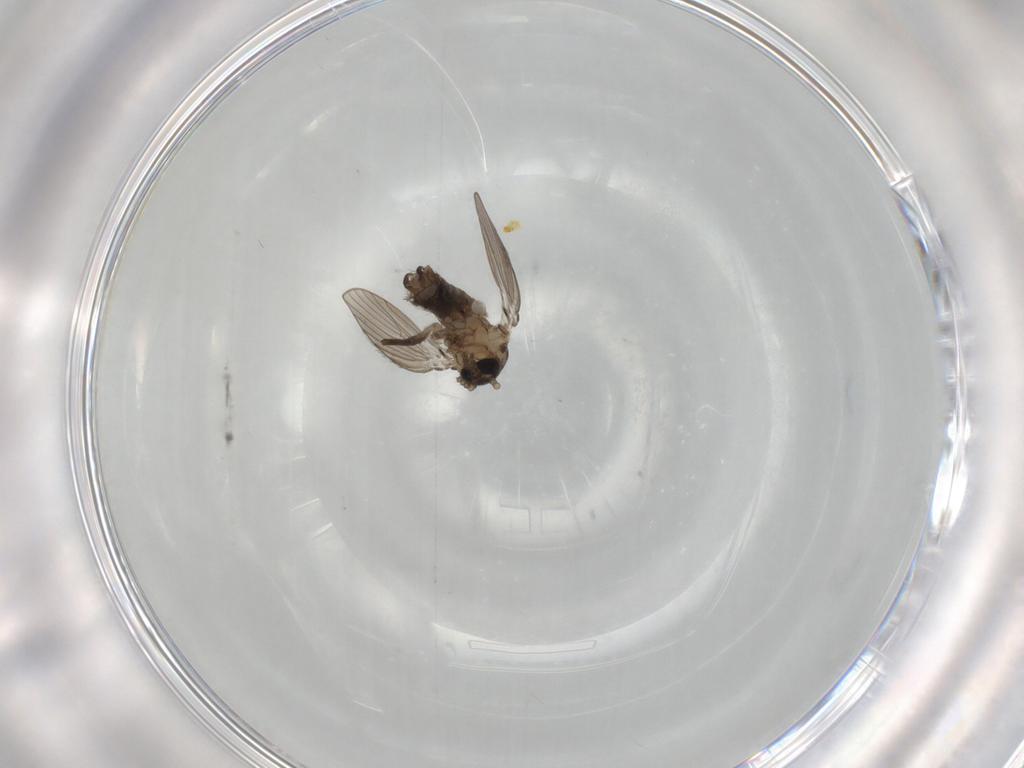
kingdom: Animalia
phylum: Arthropoda
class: Insecta
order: Diptera
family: Psychodidae
